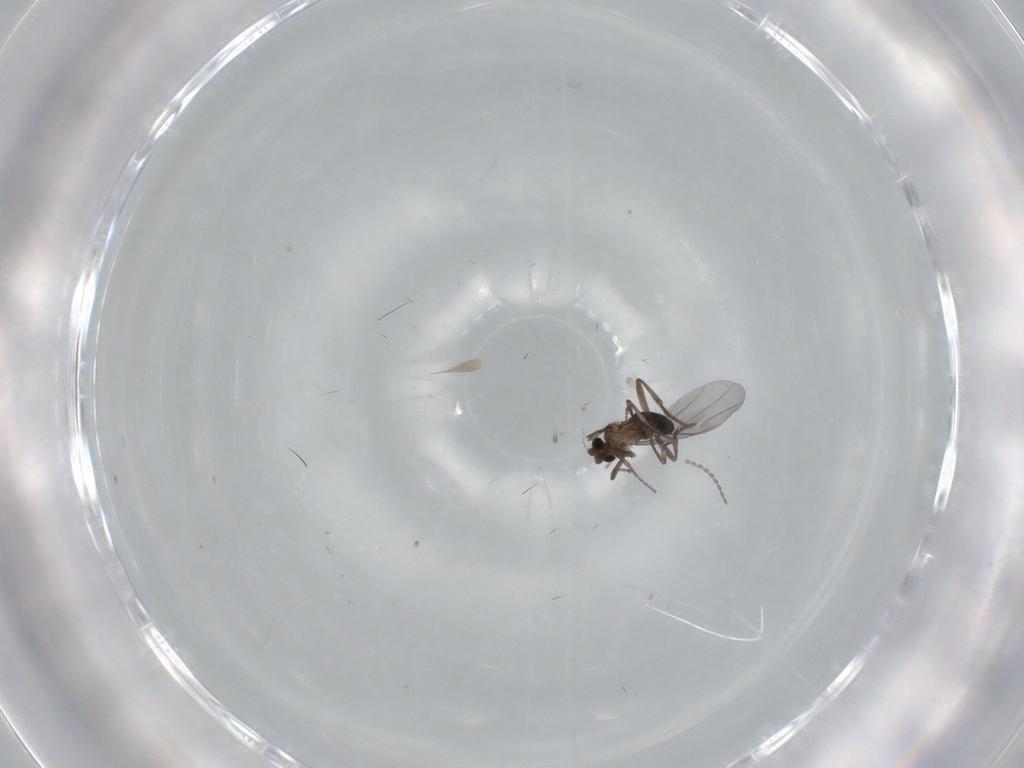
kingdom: Animalia
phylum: Arthropoda
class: Insecta
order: Diptera
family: Phoridae
